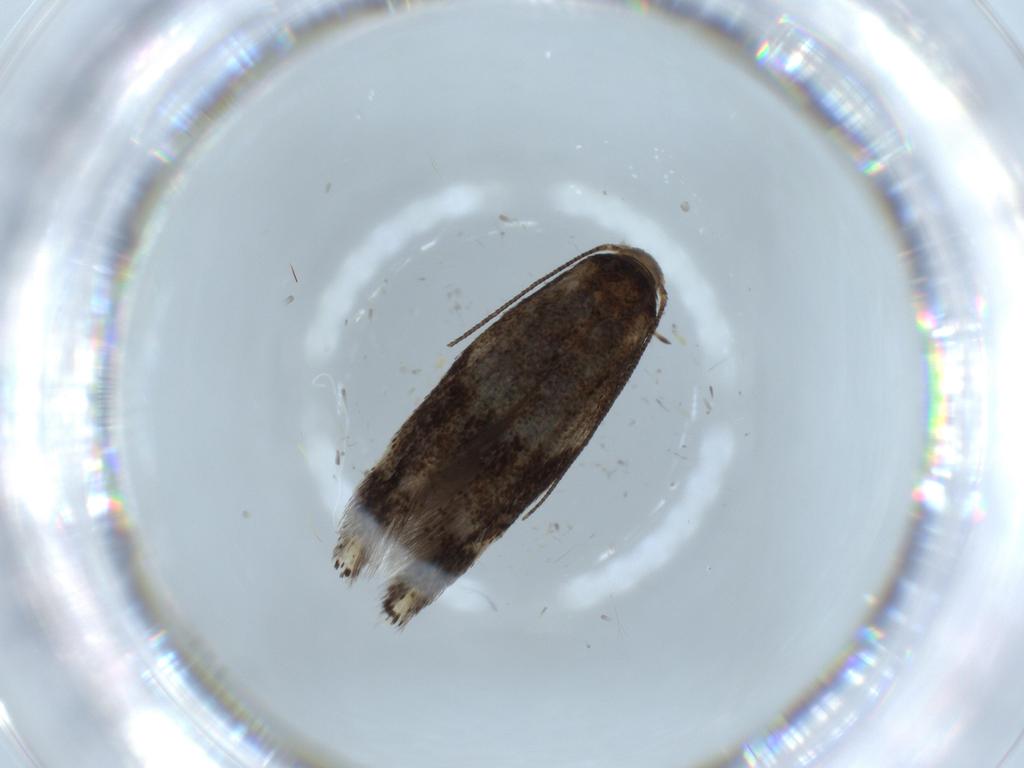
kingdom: Animalia
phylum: Arthropoda
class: Insecta
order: Lepidoptera
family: Elachistidae
